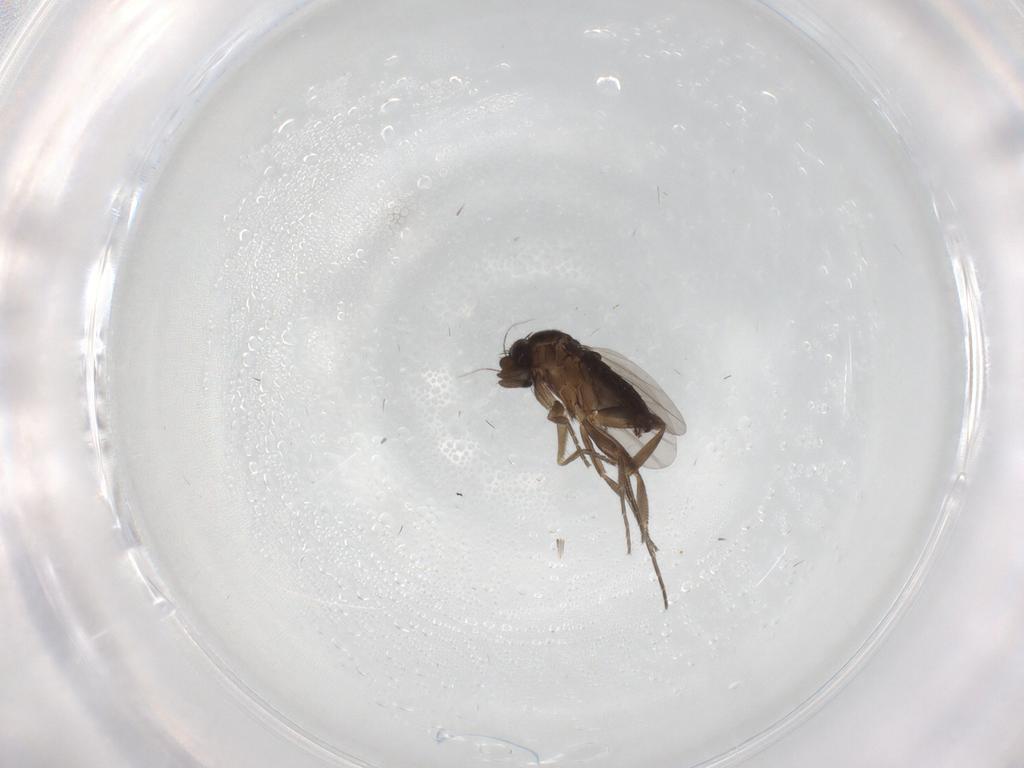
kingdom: Animalia
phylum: Arthropoda
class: Insecta
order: Diptera
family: Phoridae
